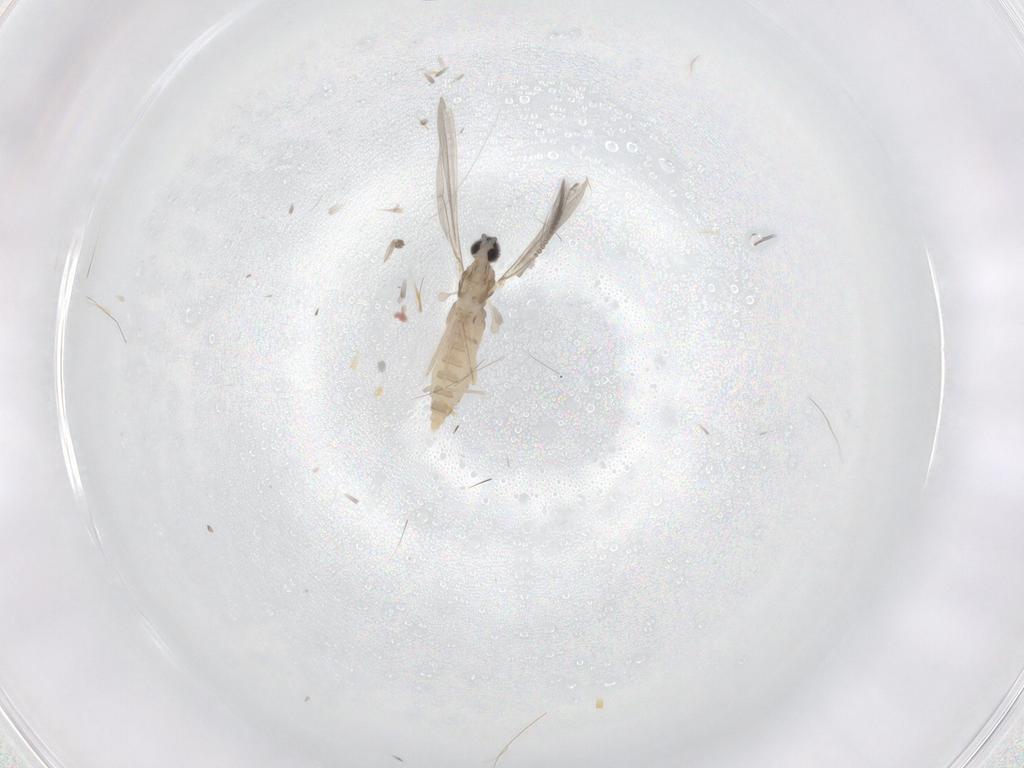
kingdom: Animalia
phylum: Arthropoda
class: Insecta
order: Diptera
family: Cecidomyiidae
